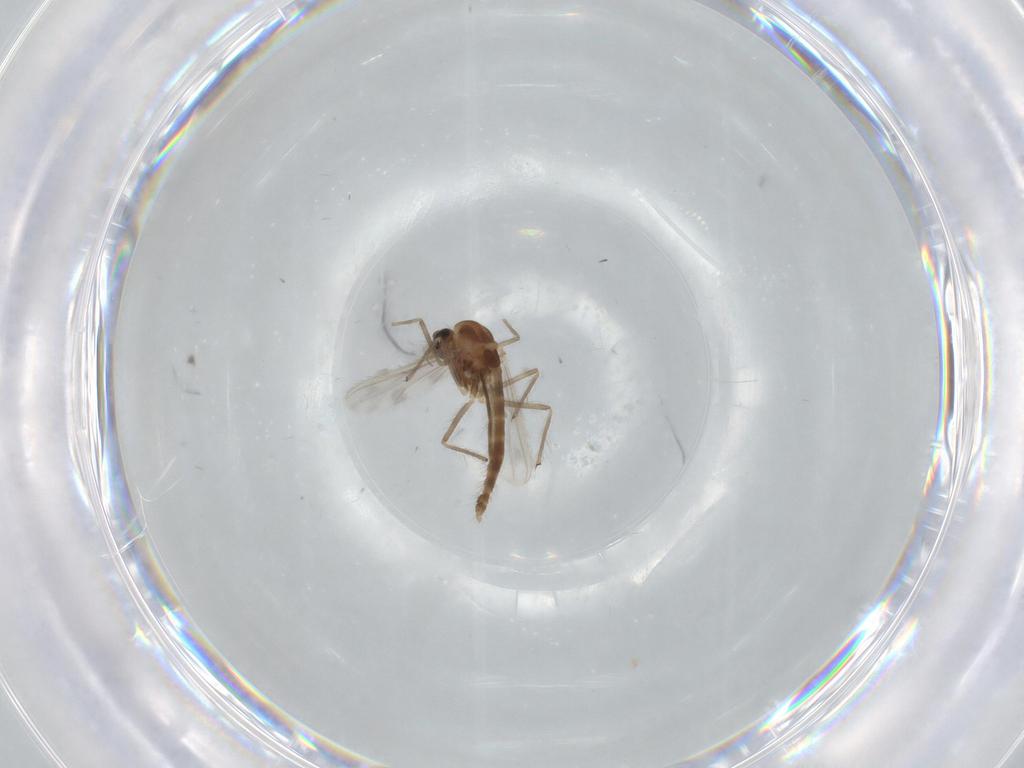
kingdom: Animalia
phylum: Arthropoda
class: Insecta
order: Diptera
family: Chironomidae
